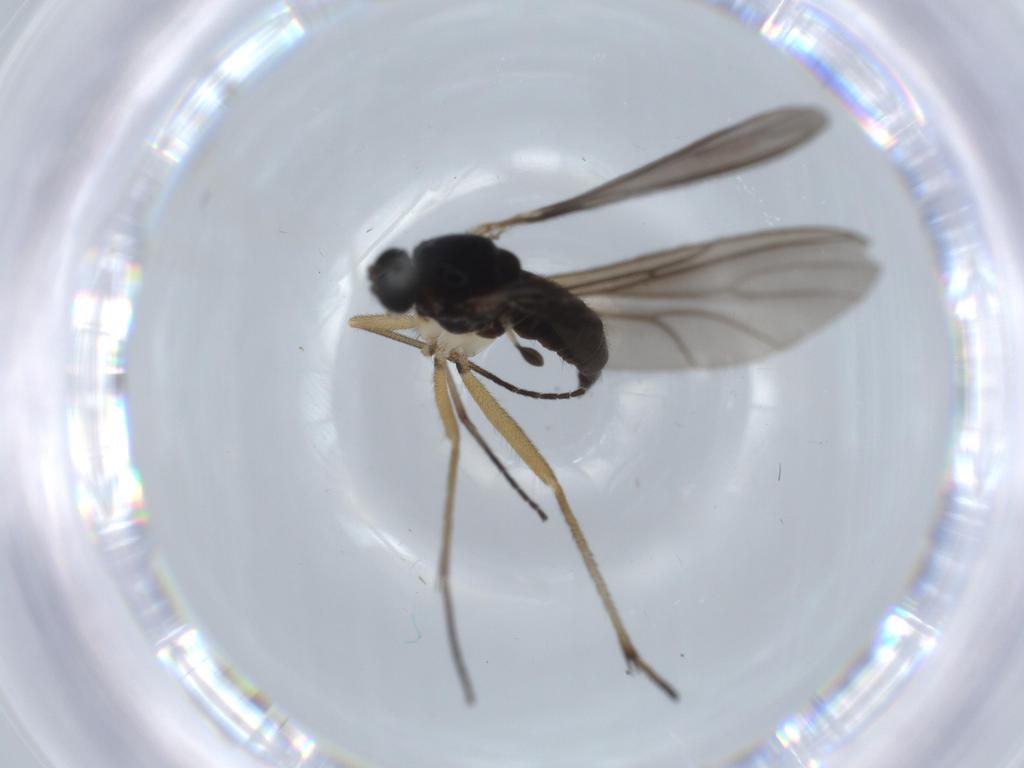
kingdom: Animalia
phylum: Arthropoda
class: Insecta
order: Diptera
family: Sciaridae
